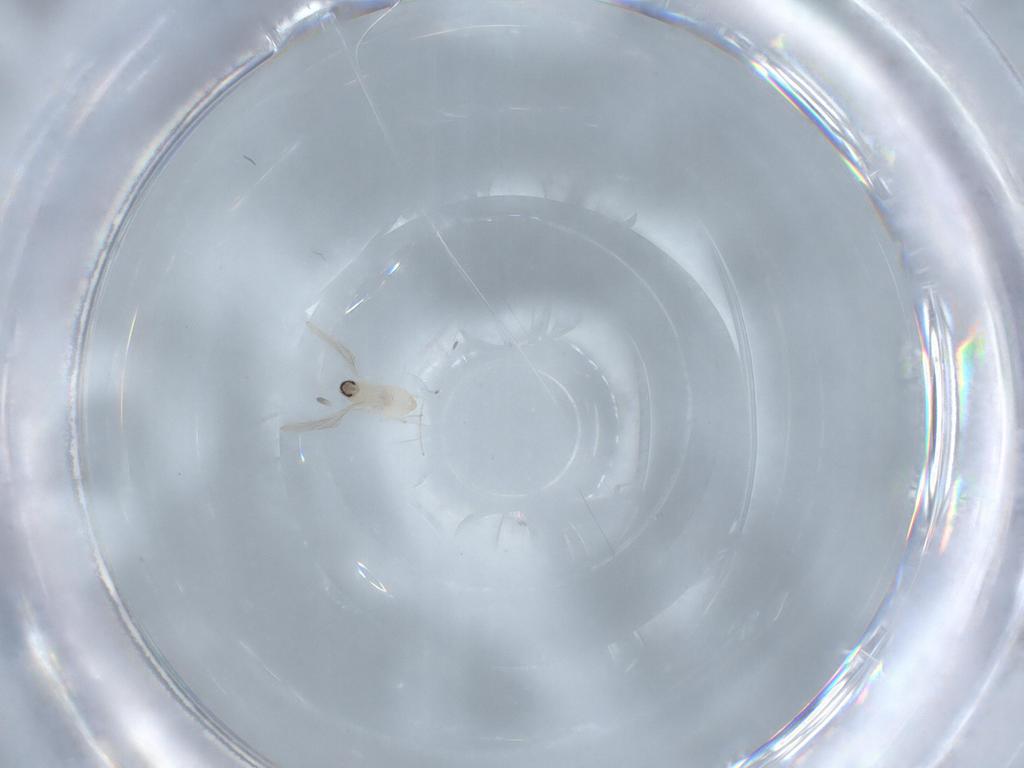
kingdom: Animalia
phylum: Arthropoda
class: Insecta
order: Diptera
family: Cecidomyiidae
